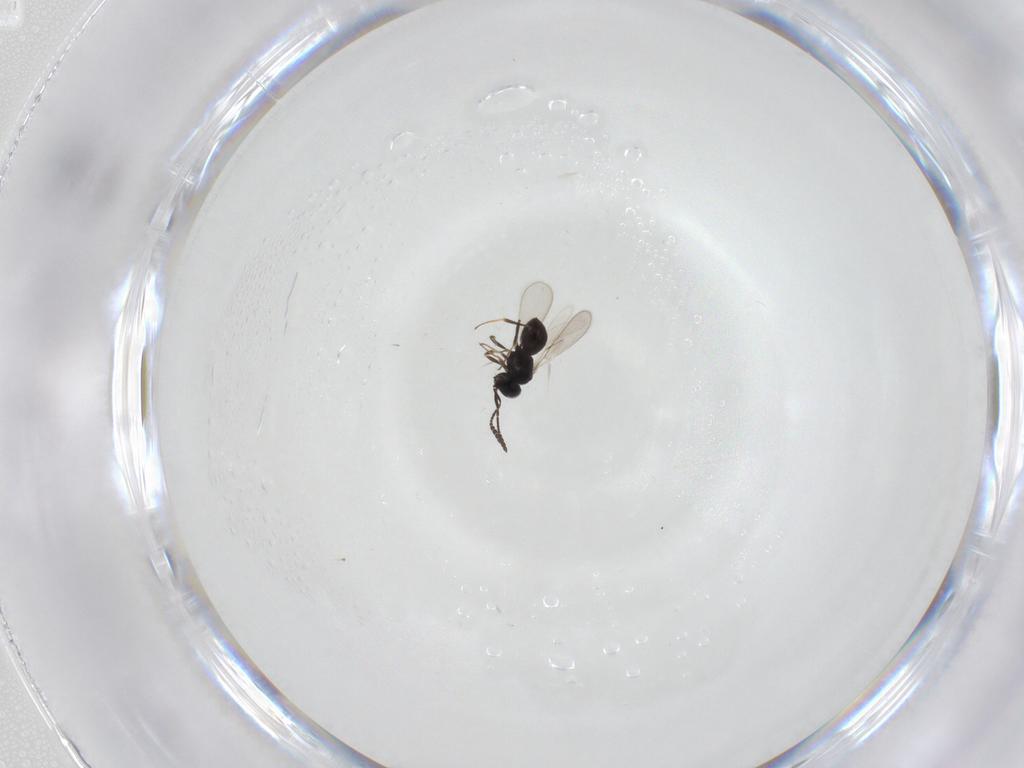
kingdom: Animalia
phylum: Arthropoda
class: Insecta
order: Hymenoptera
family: Scelionidae
